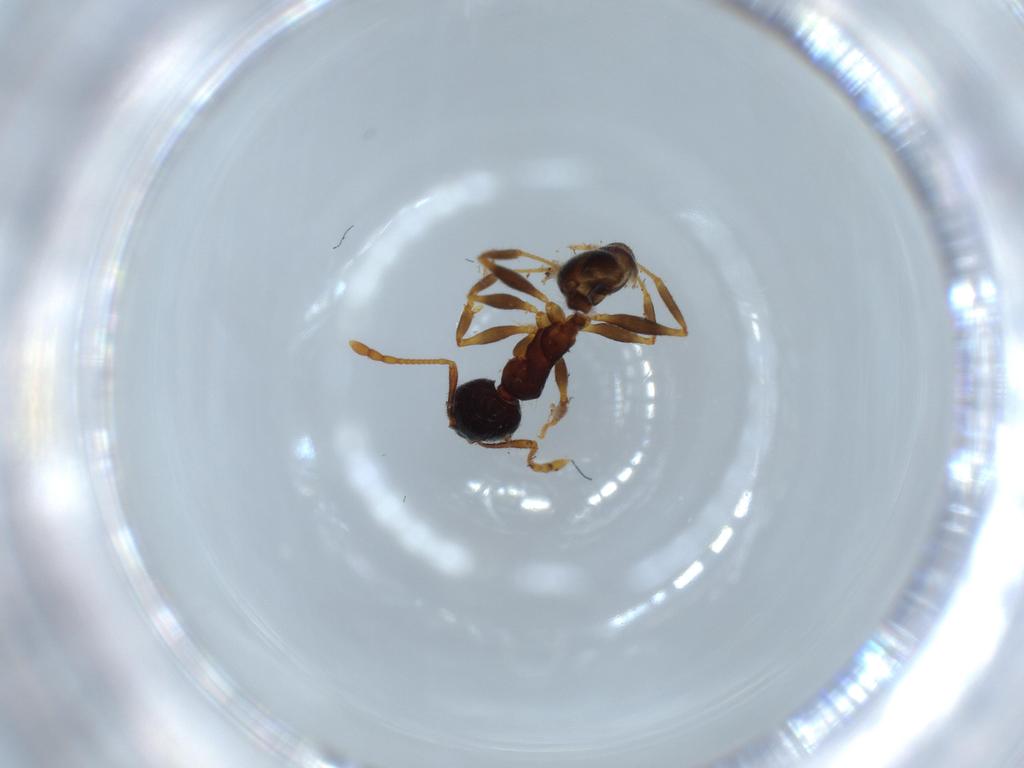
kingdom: Animalia
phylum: Arthropoda
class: Insecta
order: Hymenoptera
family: Formicidae
